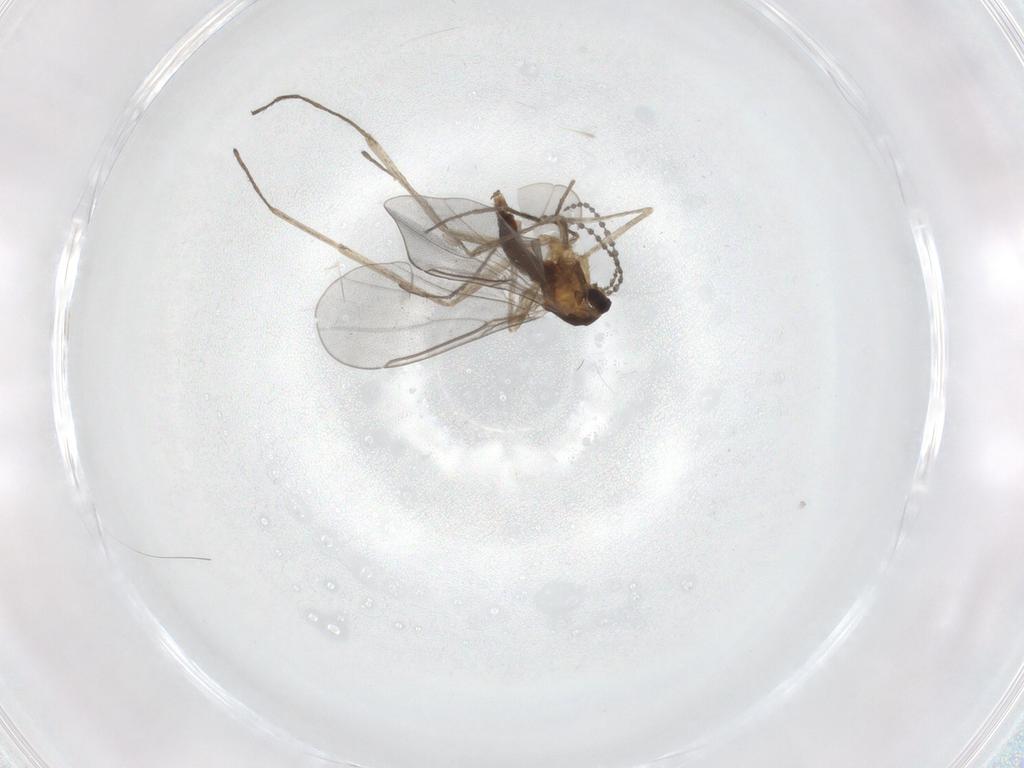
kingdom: Animalia
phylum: Arthropoda
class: Insecta
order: Diptera
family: Cecidomyiidae
